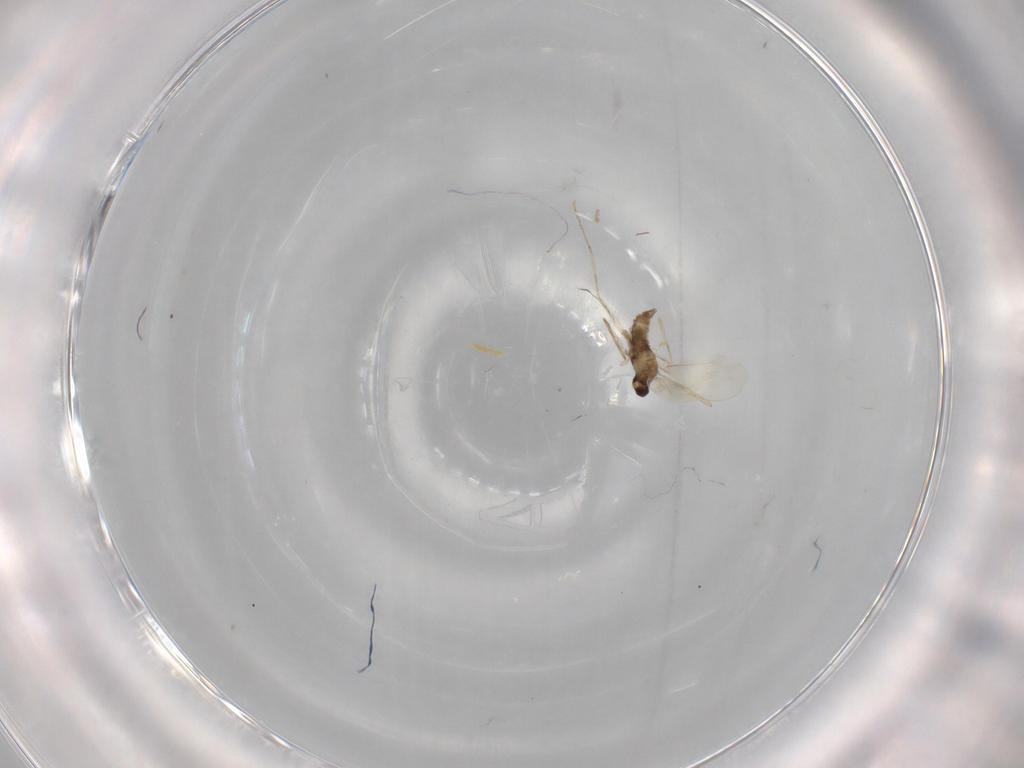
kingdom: Animalia
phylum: Arthropoda
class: Insecta
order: Diptera
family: Cecidomyiidae
